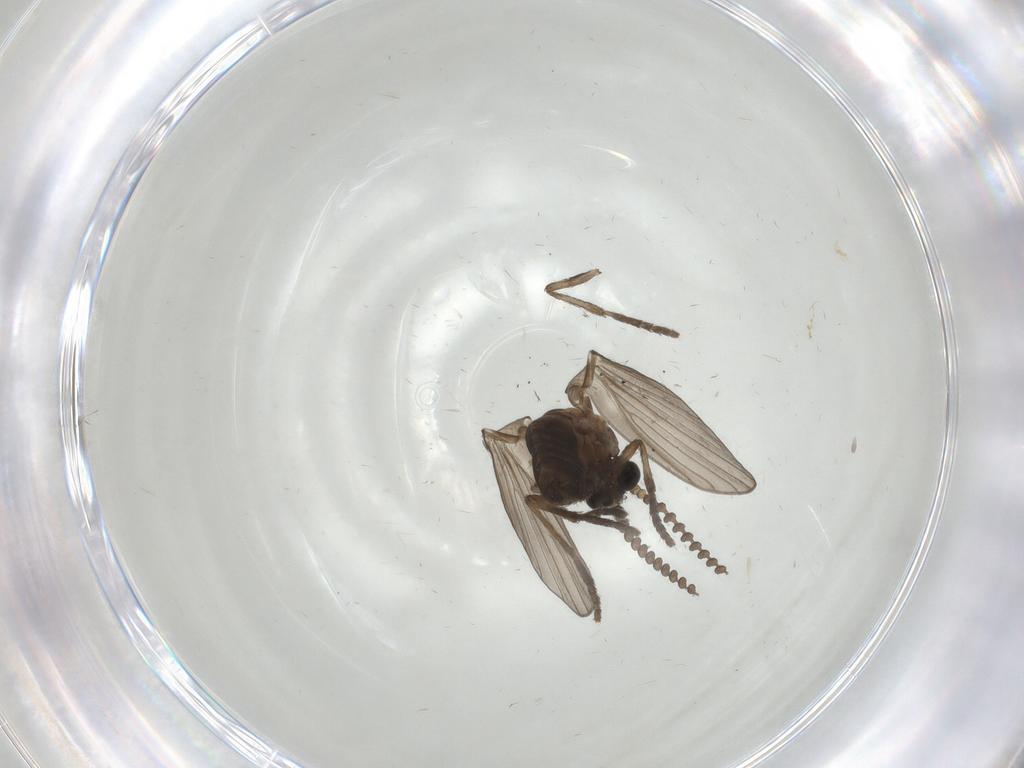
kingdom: Animalia
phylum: Arthropoda
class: Insecta
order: Diptera
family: Psychodidae
